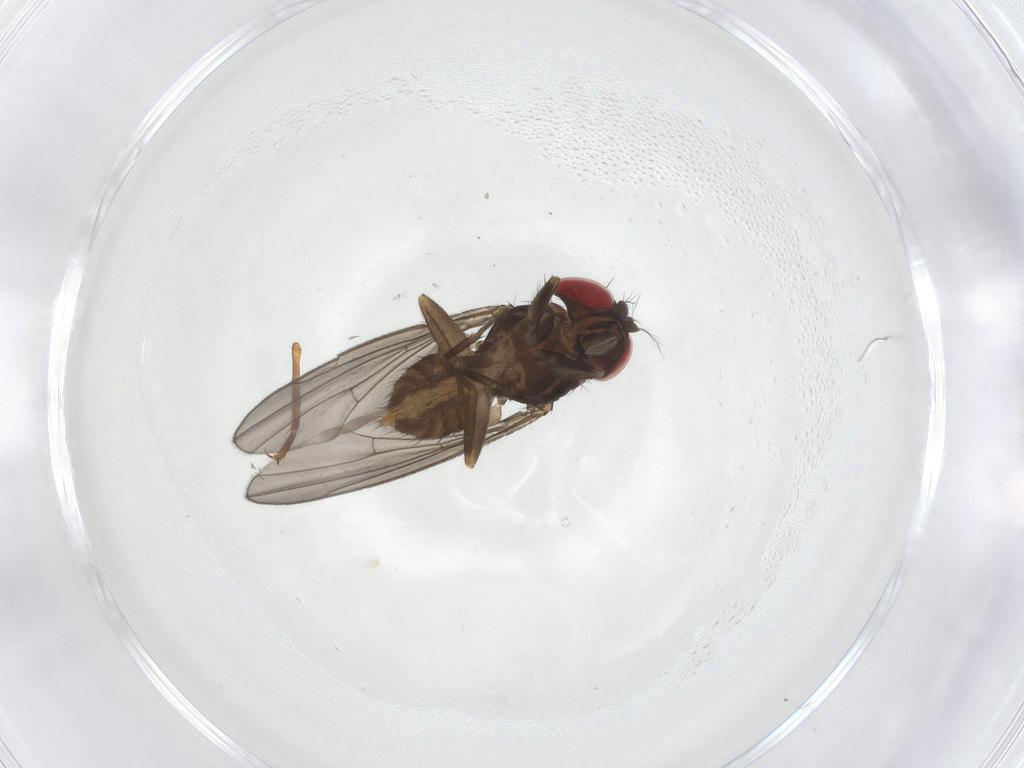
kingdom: Animalia
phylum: Arthropoda
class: Insecta
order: Diptera
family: Drosophilidae
